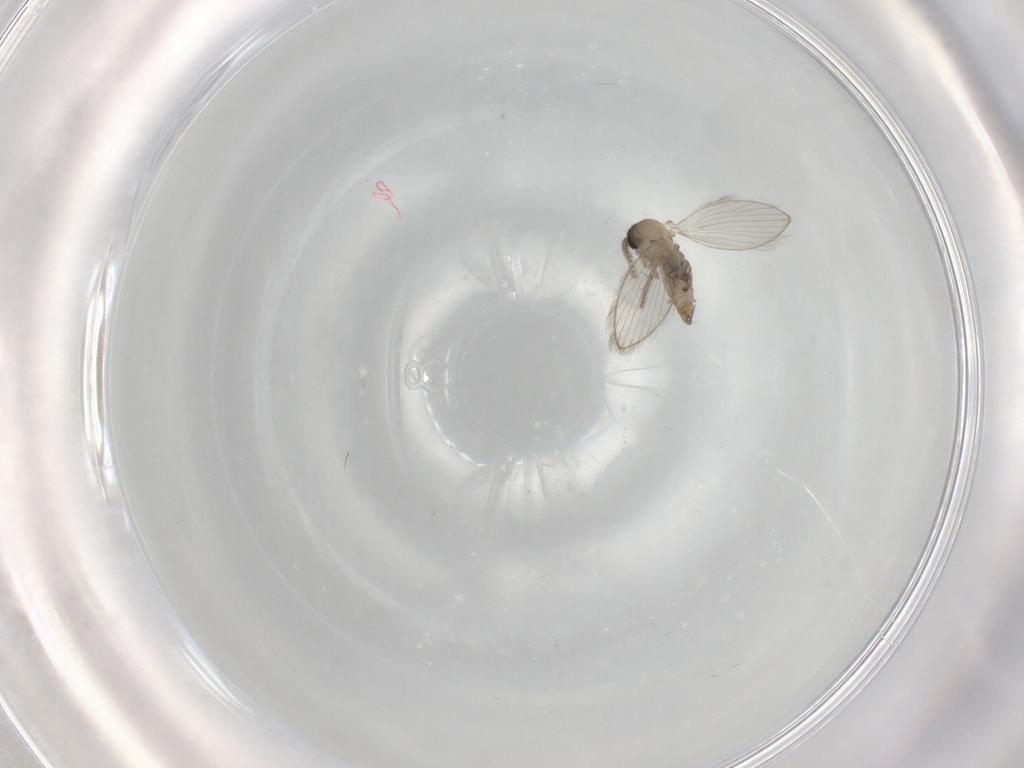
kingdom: Animalia
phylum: Arthropoda
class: Insecta
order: Diptera
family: Psychodidae
